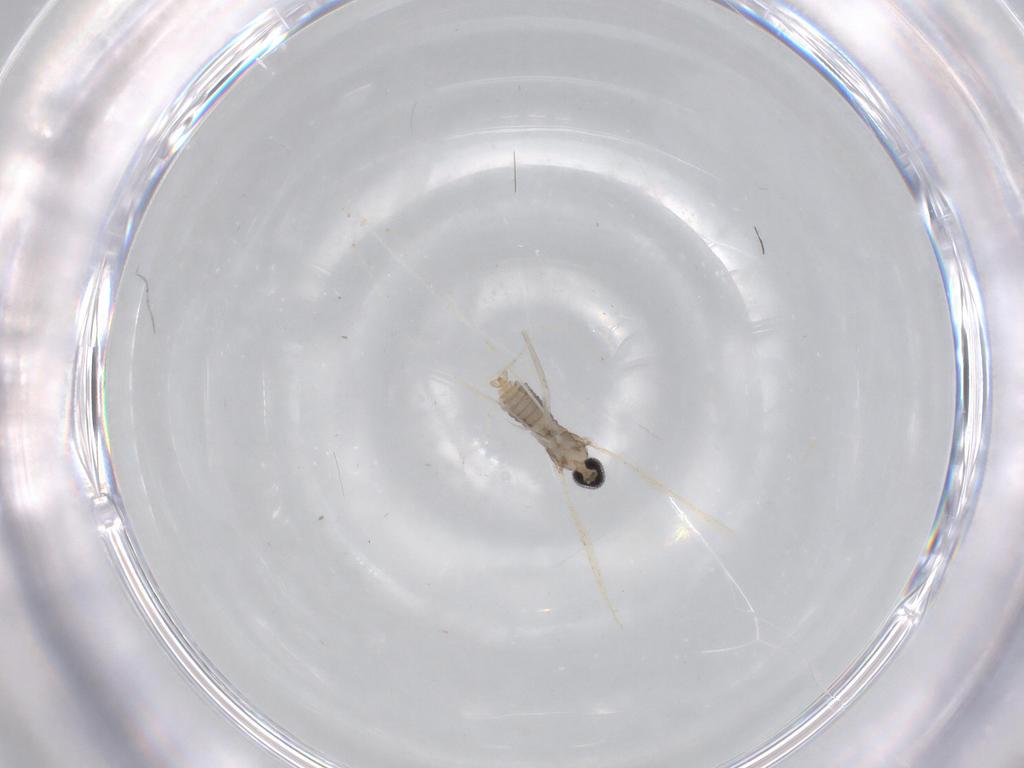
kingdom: Animalia
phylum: Arthropoda
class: Insecta
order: Diptera
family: Cecidomyiidae
